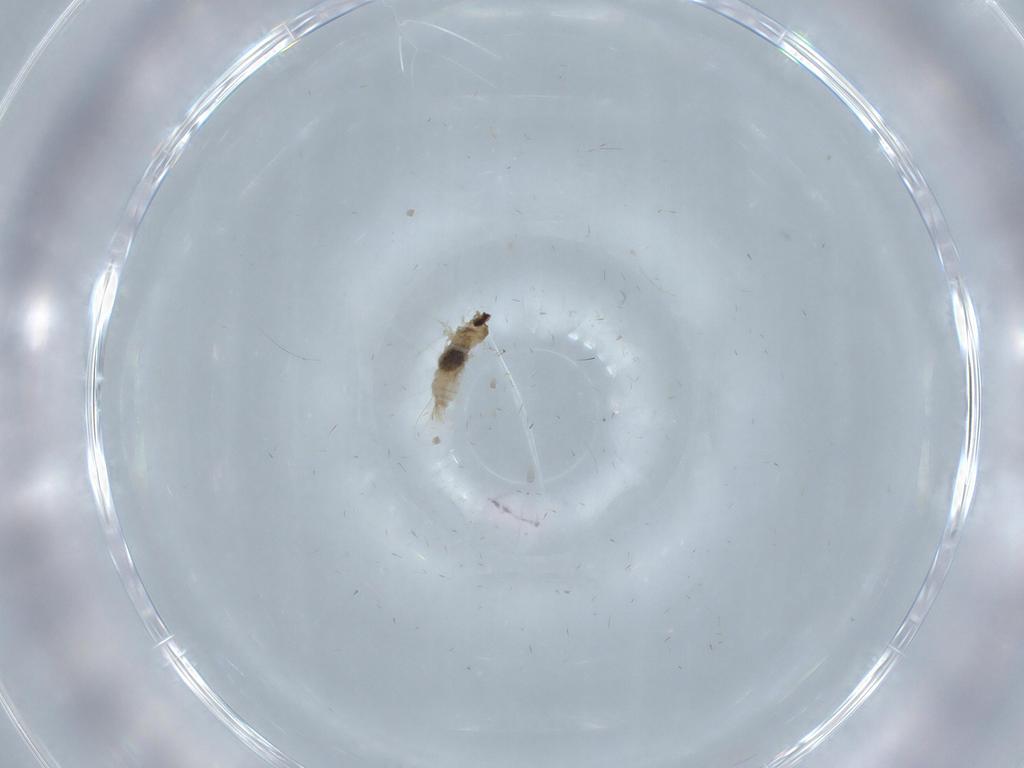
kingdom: Animalia
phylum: Arthropoda
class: Insecta
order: Diptera
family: Cecidomyiidae
